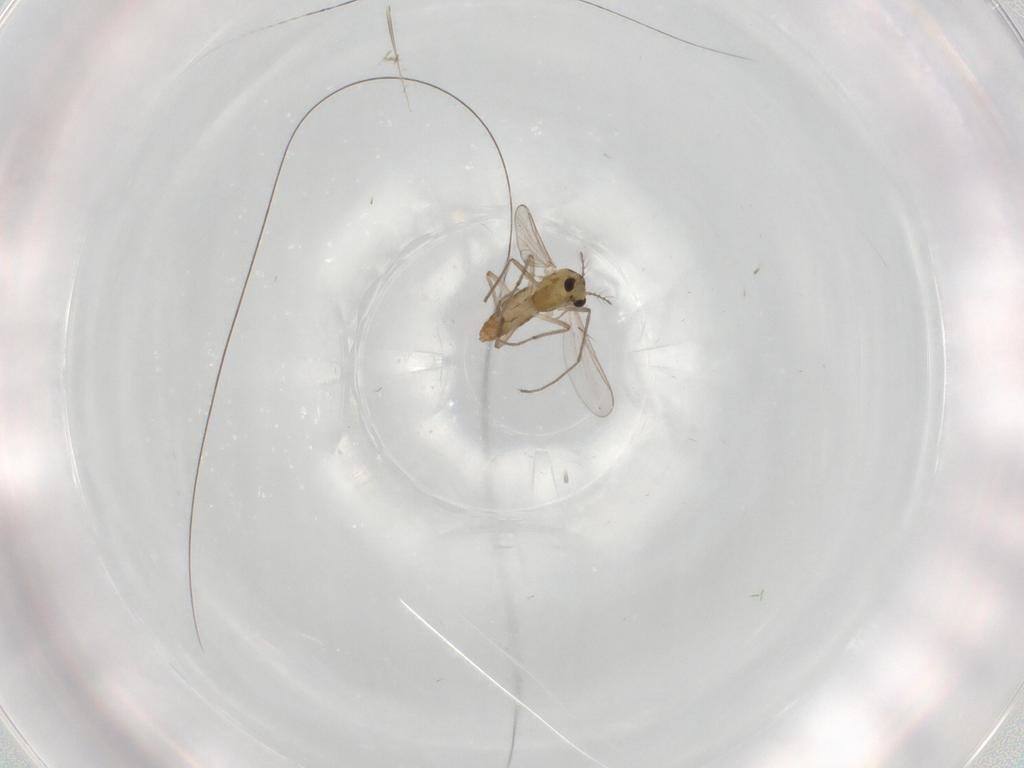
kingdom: Animalia
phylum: Arthropoda
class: Insecta
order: Diptera
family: Chironomidae
